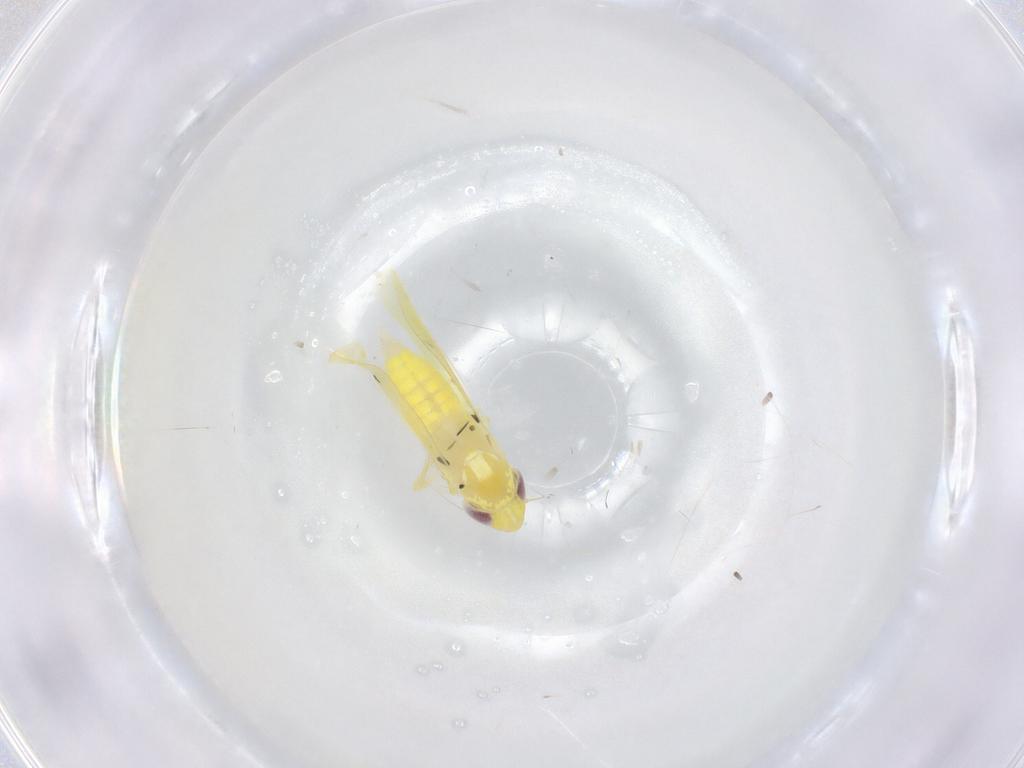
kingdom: Animalia
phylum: Arthropoda
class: Insecta
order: Hemiptera
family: Cicadellidae
